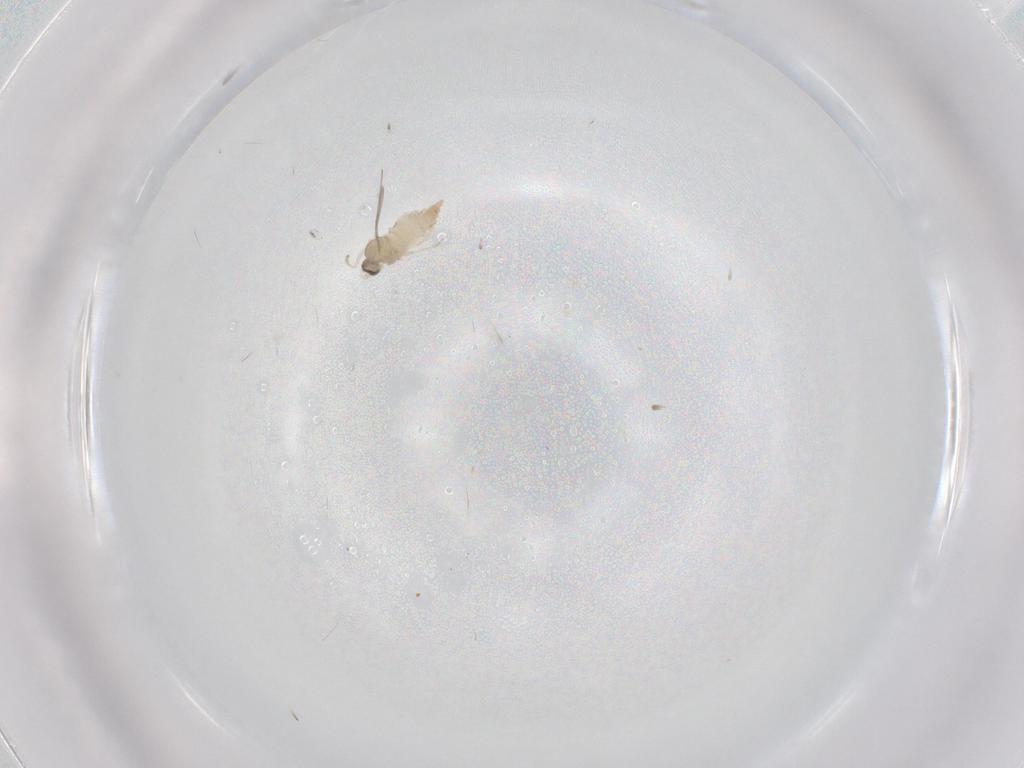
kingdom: Animalia
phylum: Arthropoda
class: Insecta
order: Diptera
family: Cecidomyiidae
